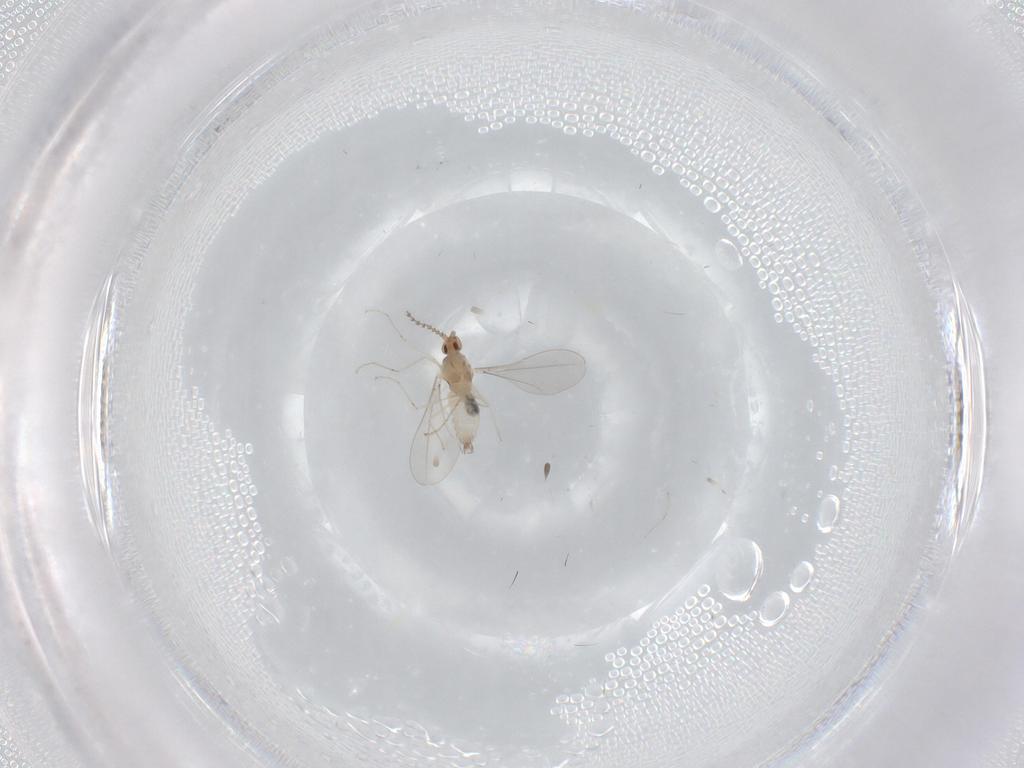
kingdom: Animalia
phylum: Arthropoda
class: Insecta
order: Diptera
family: Cecidomyiidae
